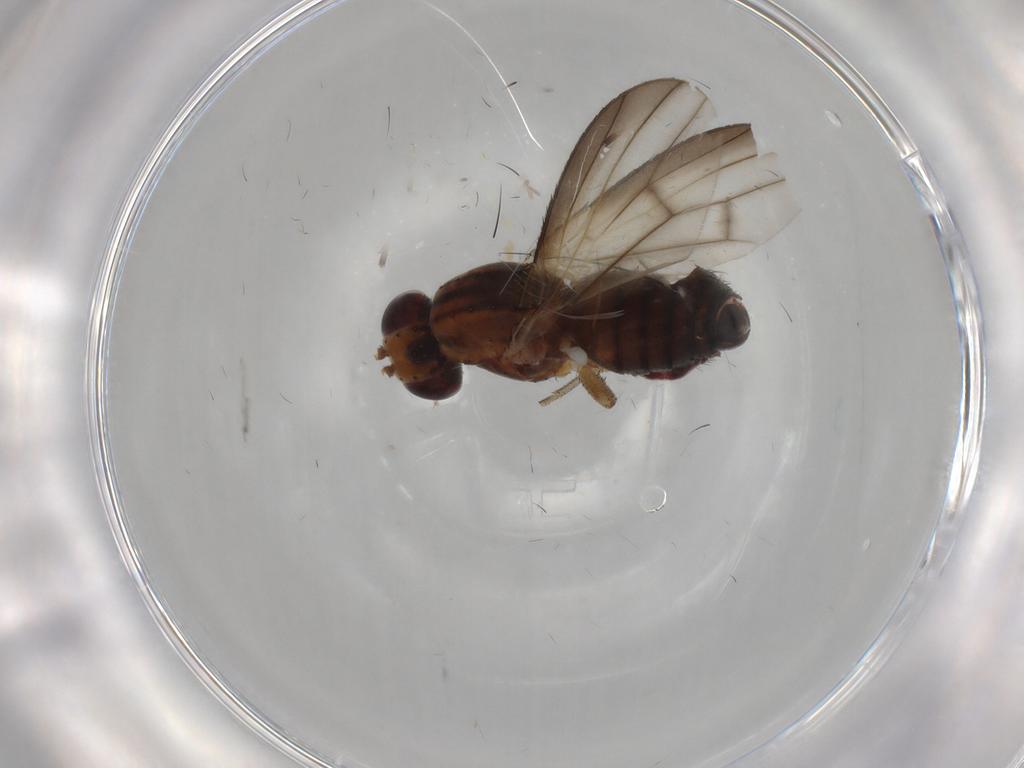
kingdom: Animalia
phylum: Arthropoda
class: Insecta
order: Diptera
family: Heleomyzidae
